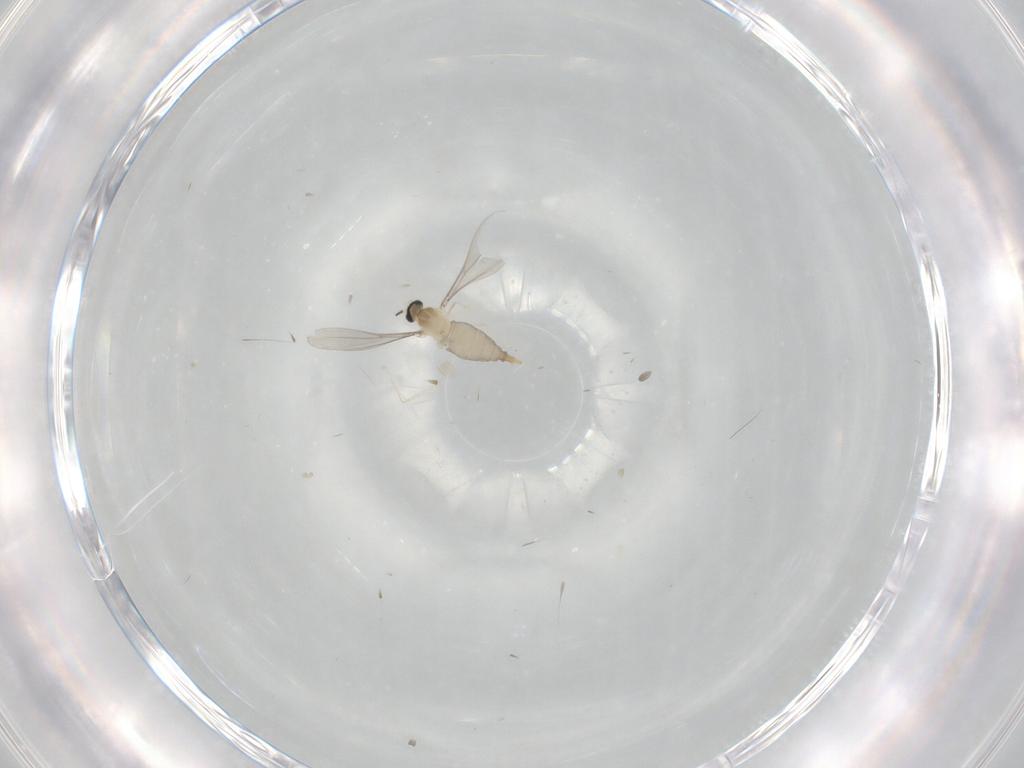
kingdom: Animalia
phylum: Arthropoda
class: Insecta
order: Diptera
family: Cecidomyiidae
